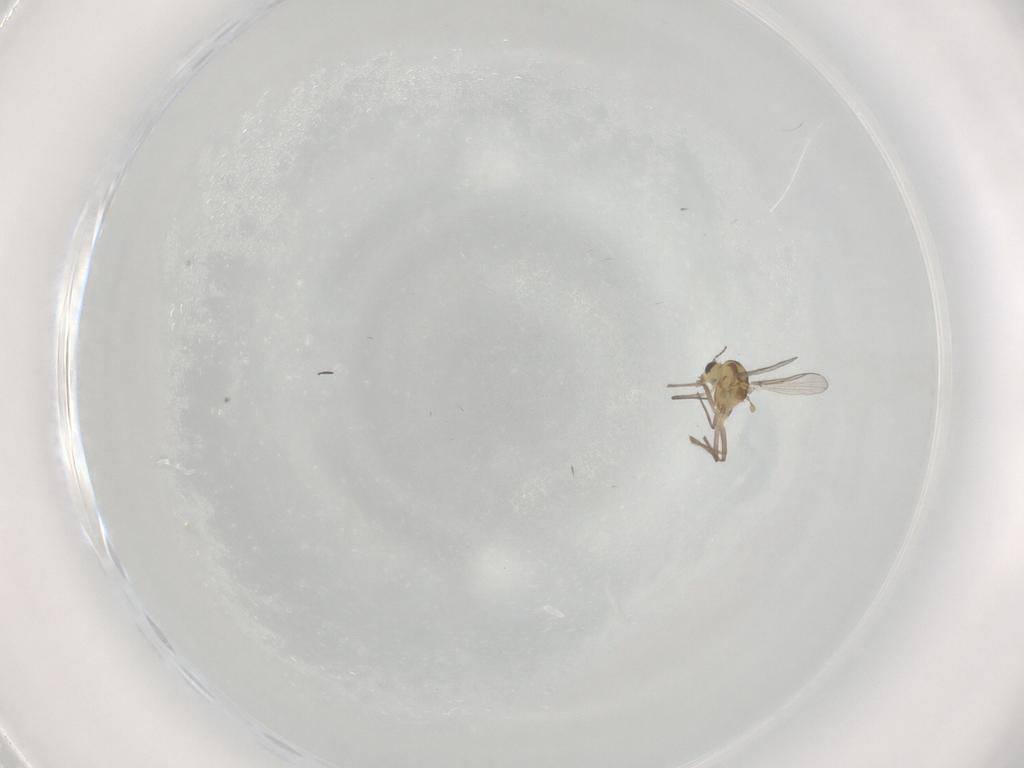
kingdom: Animalia
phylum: Arthropoda
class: Insecta
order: Diptera
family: Chironomidae
